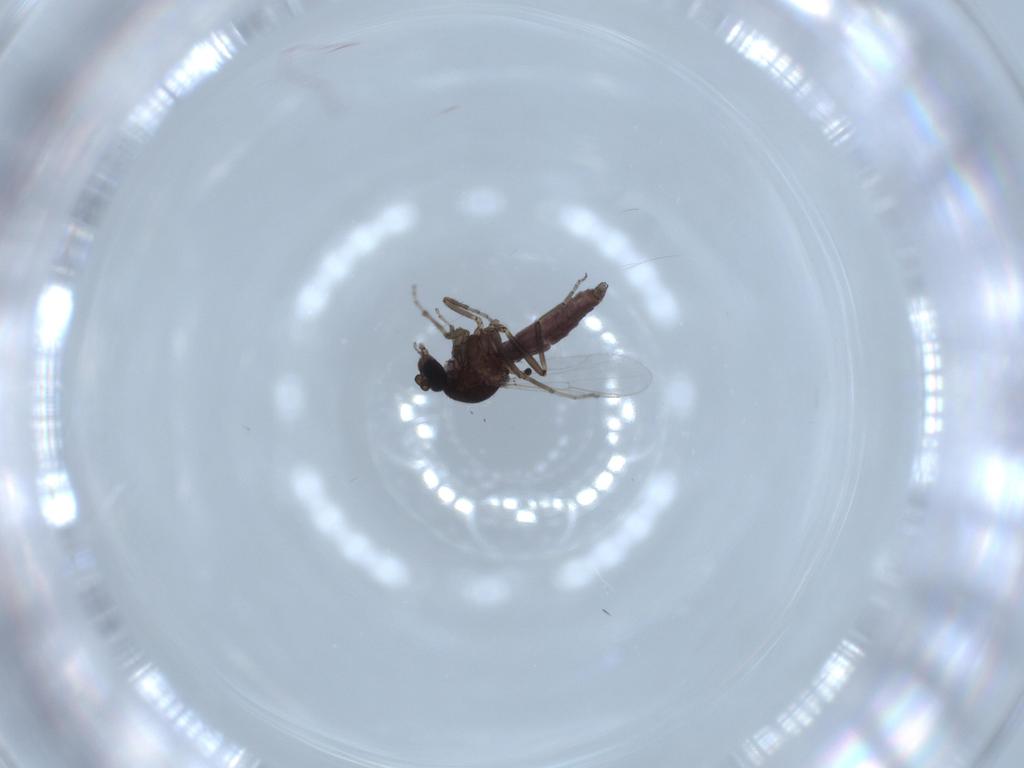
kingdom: Animalia
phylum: Arthropoda
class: Insecta
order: Diptera
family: Ceratopogonidae
